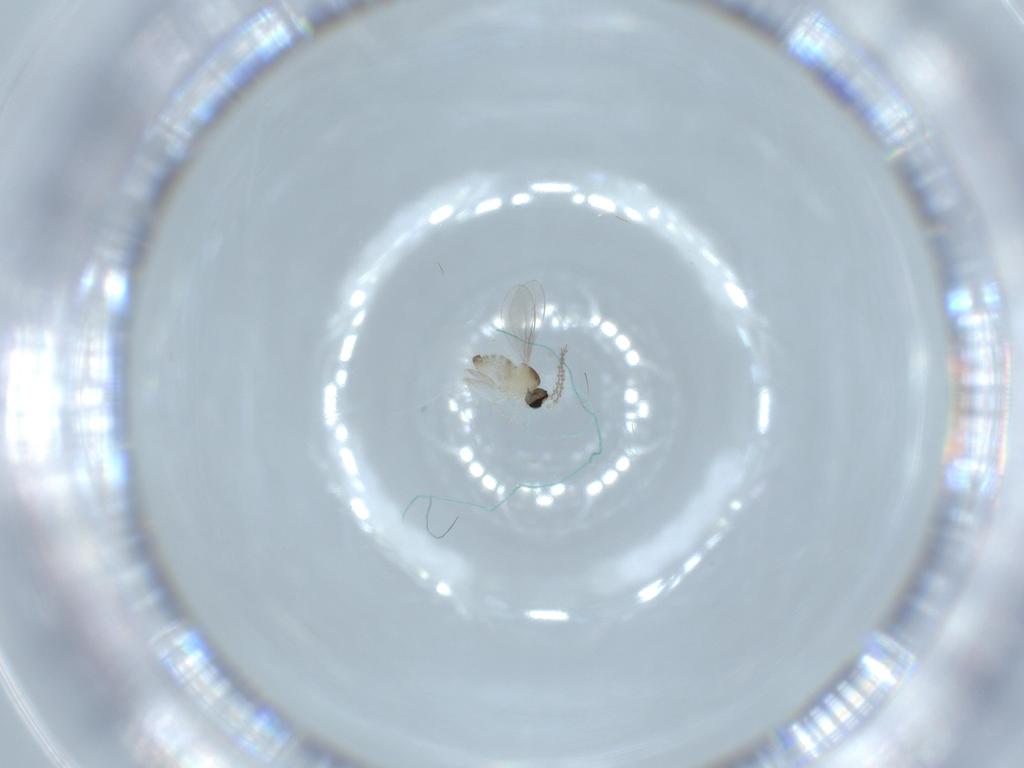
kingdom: Animalia
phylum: Arthropoda
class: Insecta
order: Diptera
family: Cecidomyiidae
